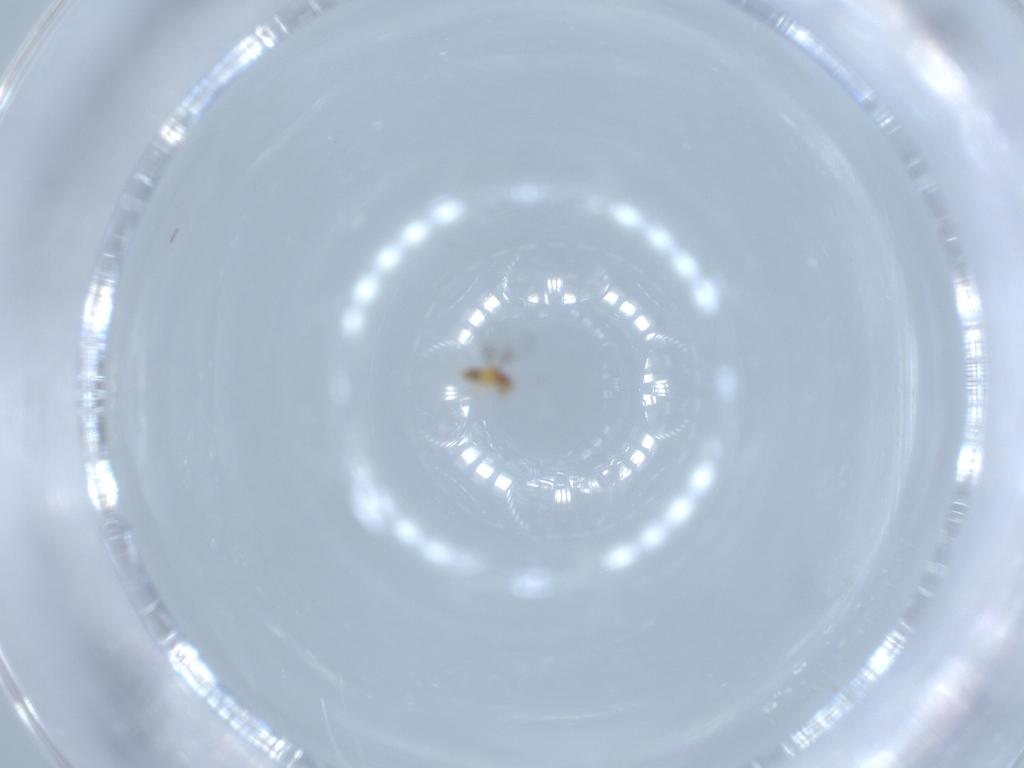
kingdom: Animalia
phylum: Arthropoda
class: Insecta
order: Hymenoptera
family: Trichogrammatidae
